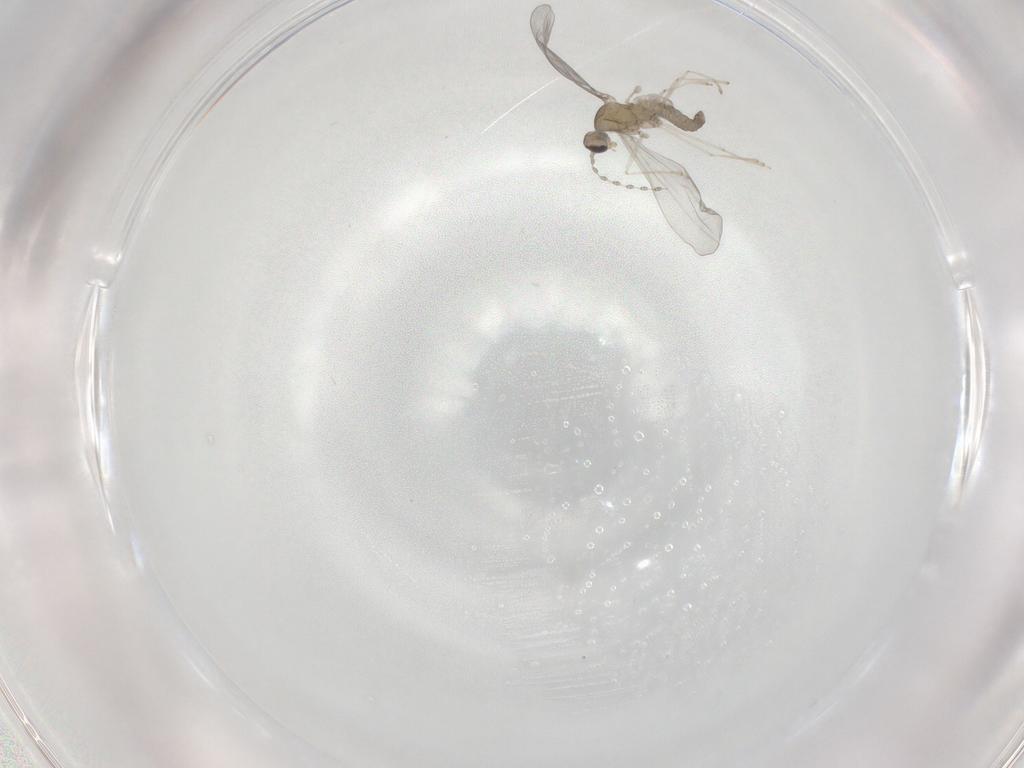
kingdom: Animalia
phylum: Arthropoda
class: Insecta
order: Diptera
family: Cecidomyiidae
